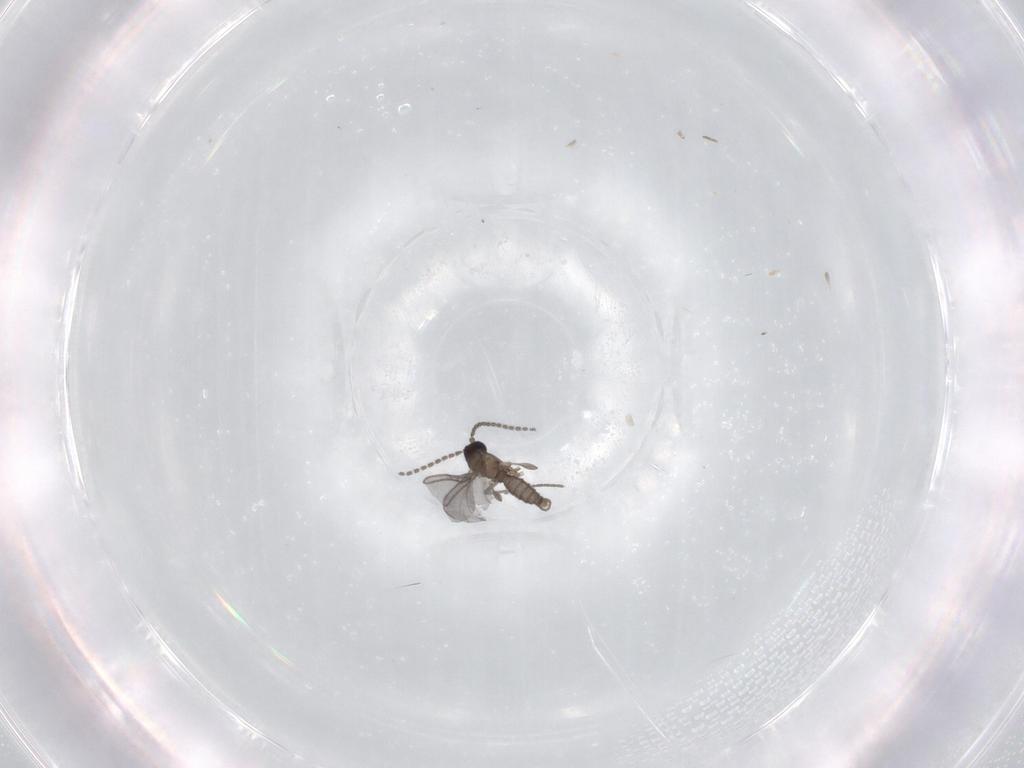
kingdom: Animalia
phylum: Arthropoda
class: Insecta
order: Diptera
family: Sciaridae
